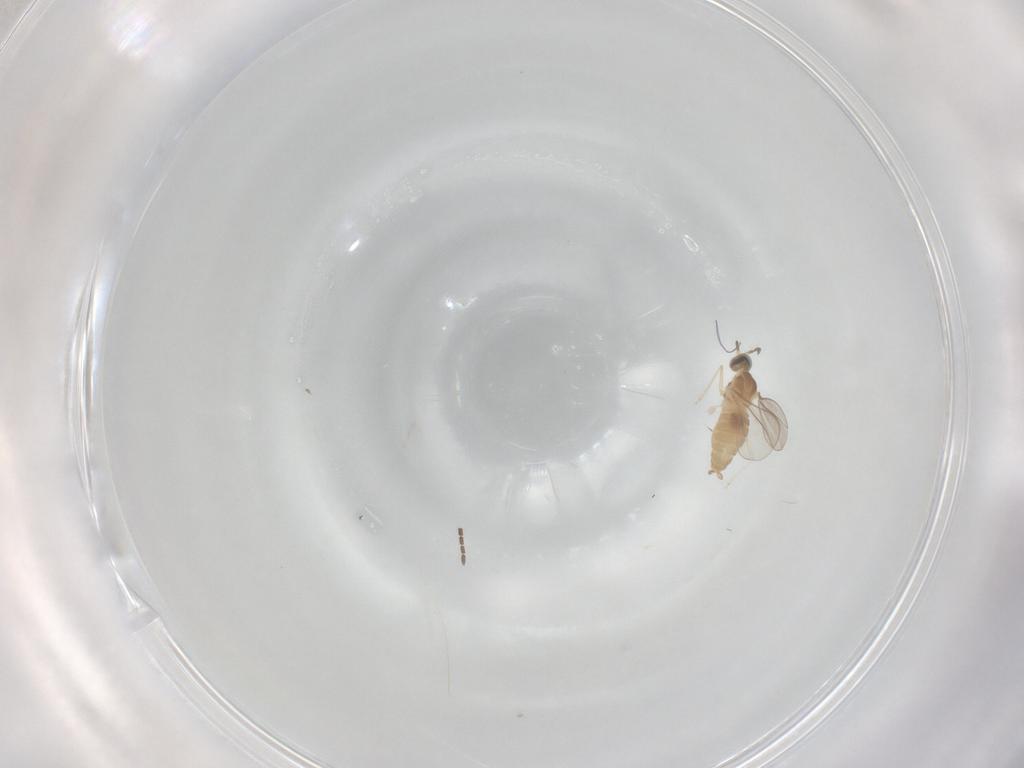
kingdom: Animalia
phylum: Arthropoda
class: Insecta
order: Diptera
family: Cecidomyiidae
